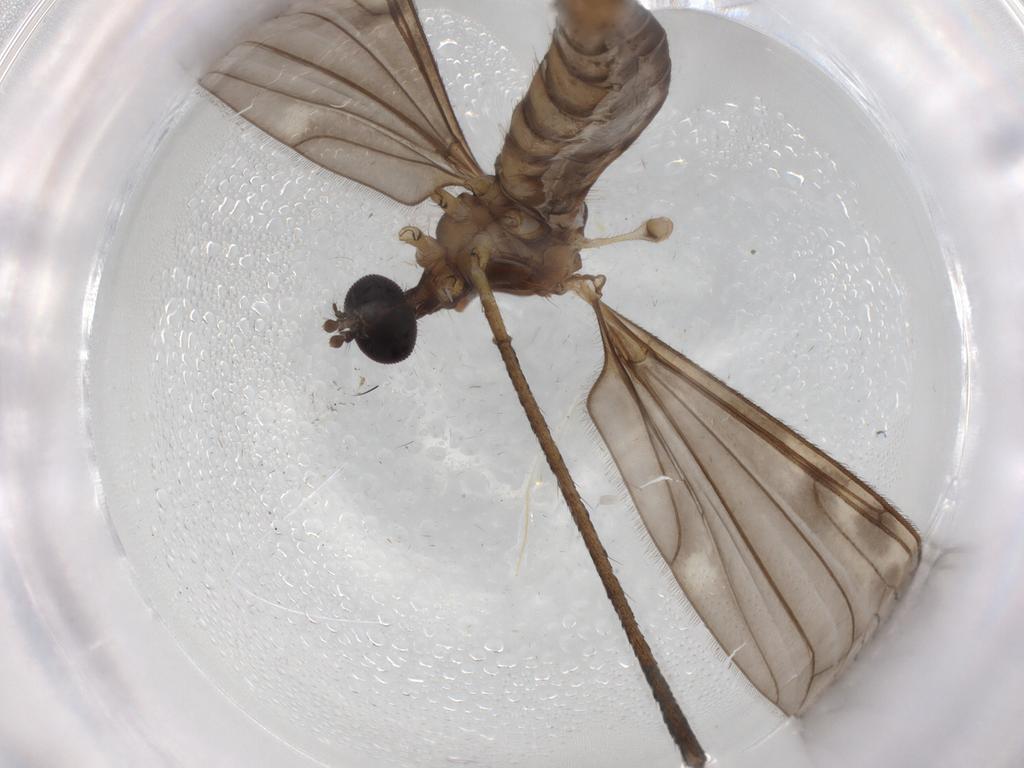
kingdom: Animalia
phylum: Arthropoda
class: Insecta
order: Diptera
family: Limoniidae
